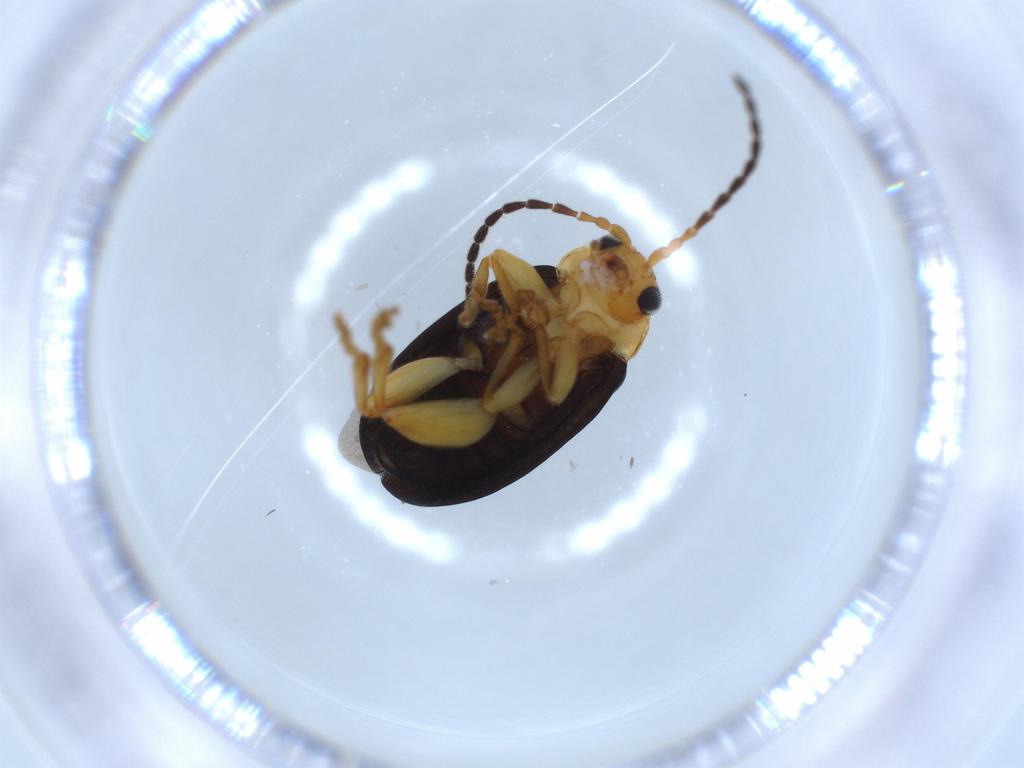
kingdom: Animalia
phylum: Arthropoda
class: Insecta
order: Coleoptera
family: Chrysomelidae
